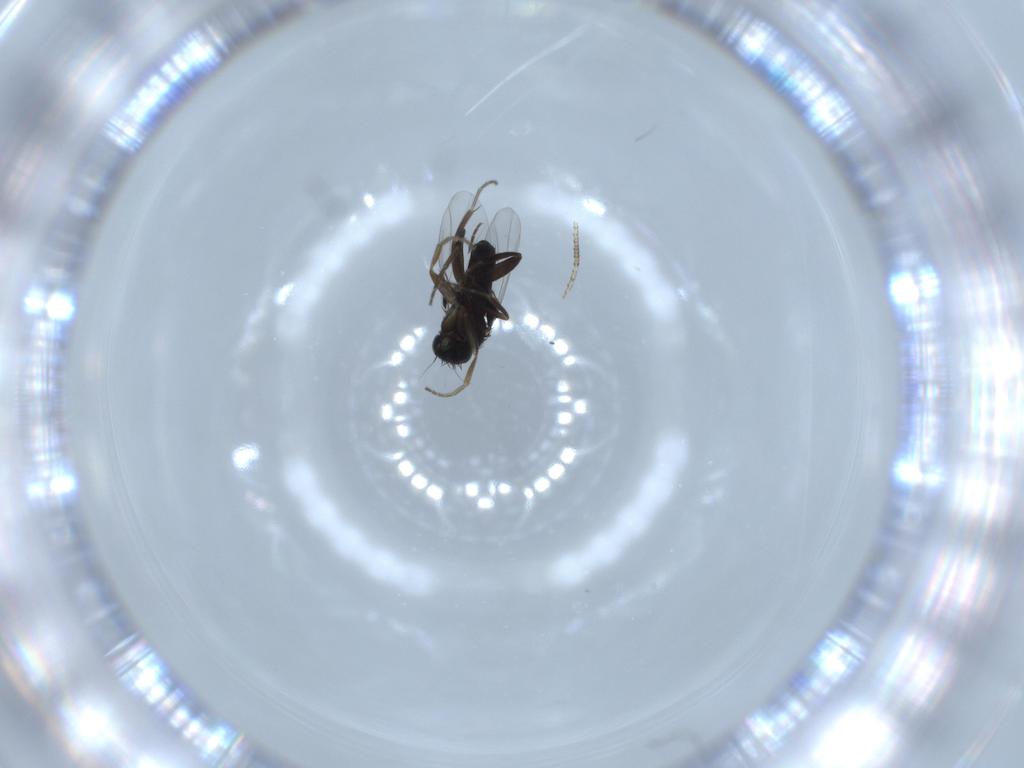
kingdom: Animalia
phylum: Arthropoda
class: Insecta
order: Diptera
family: Phoridae
